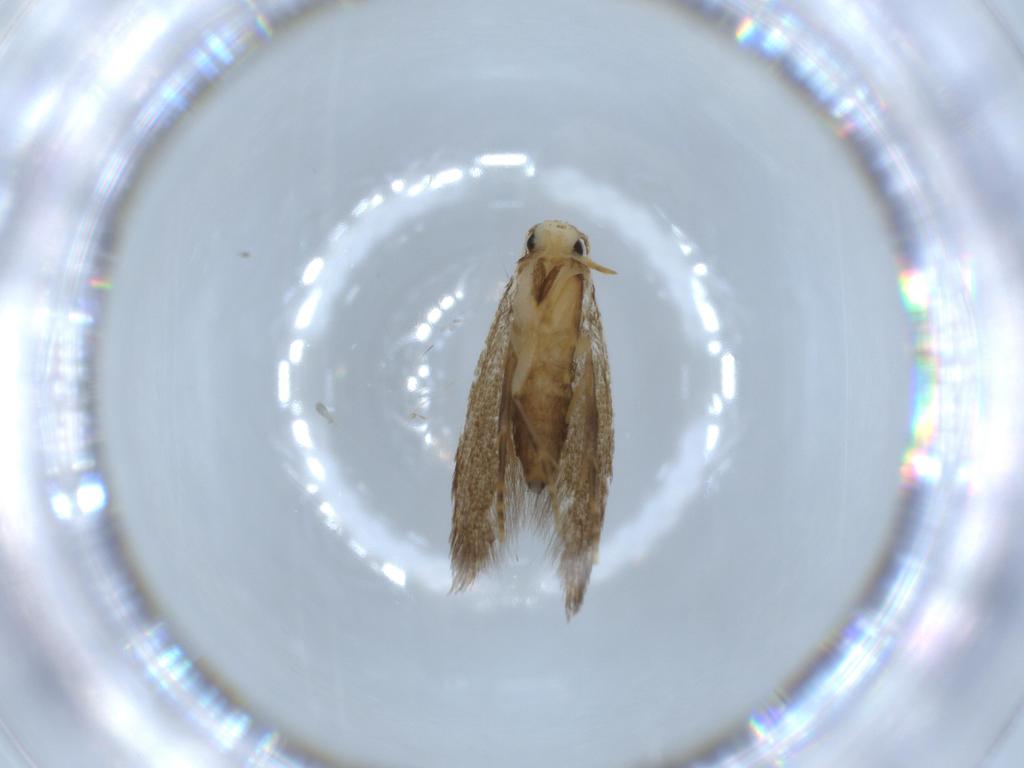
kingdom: Animalia
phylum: Arthropoda
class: Insecta
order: Lepidoptera
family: Tineidae
